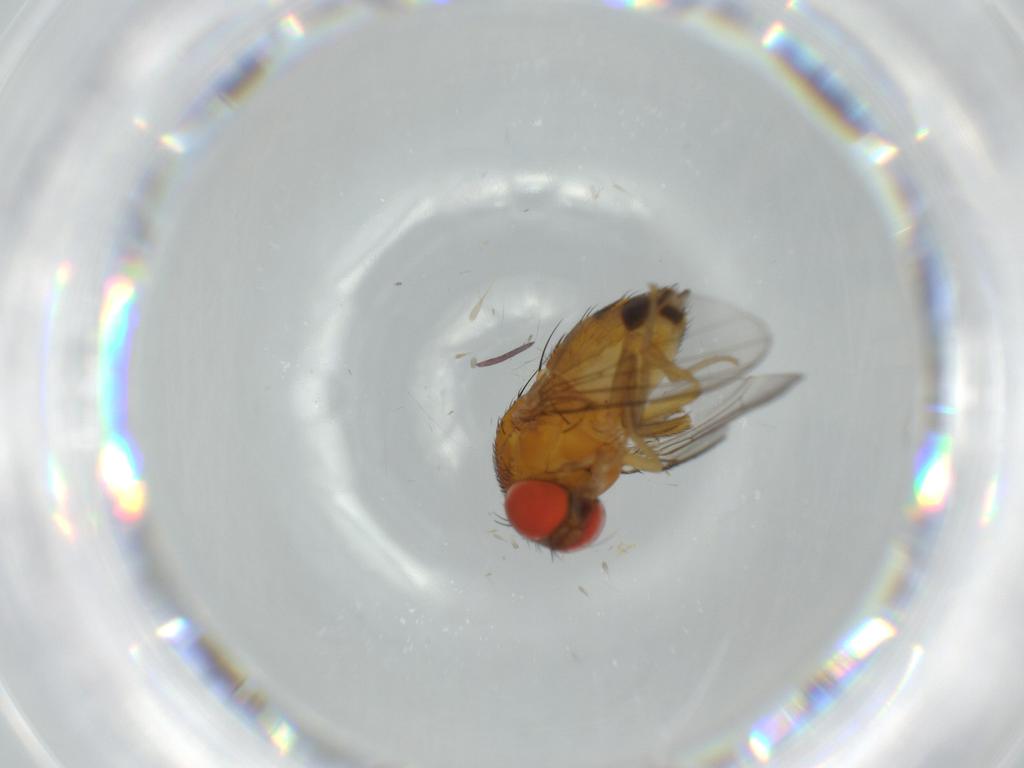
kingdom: Animalia
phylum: Arthropoda
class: Insecta
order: Diptera
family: Drosophilidae
